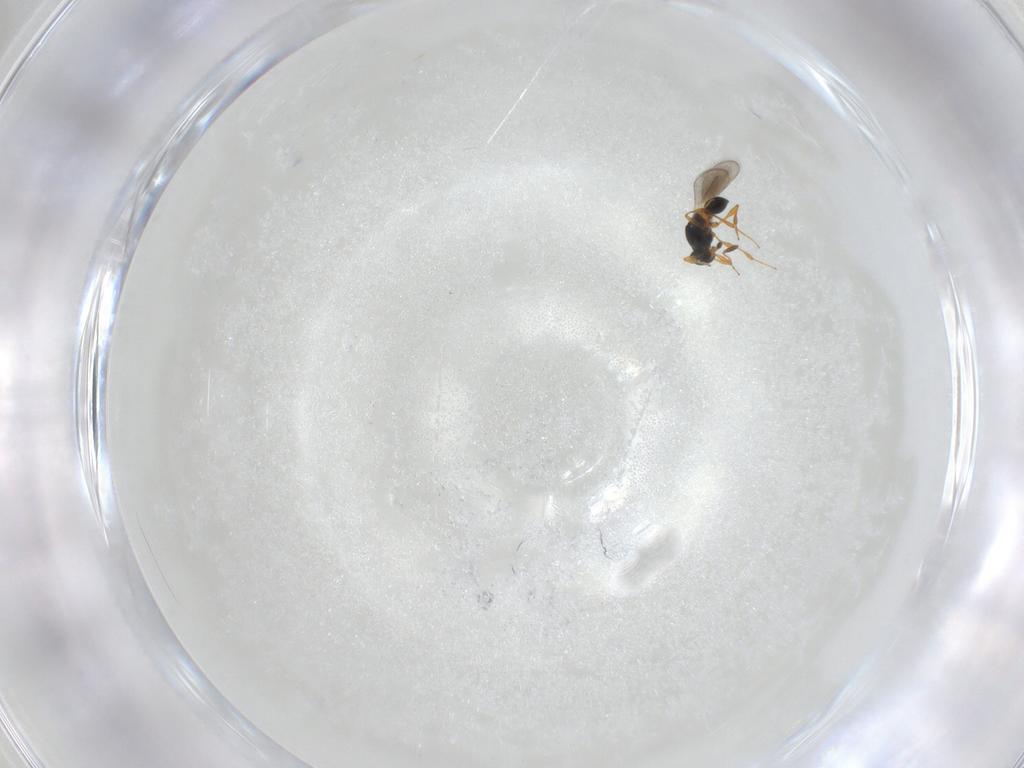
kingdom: Animalia
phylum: Arthropoda
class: Insecta
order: Hymenoptera
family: Platygastridae
